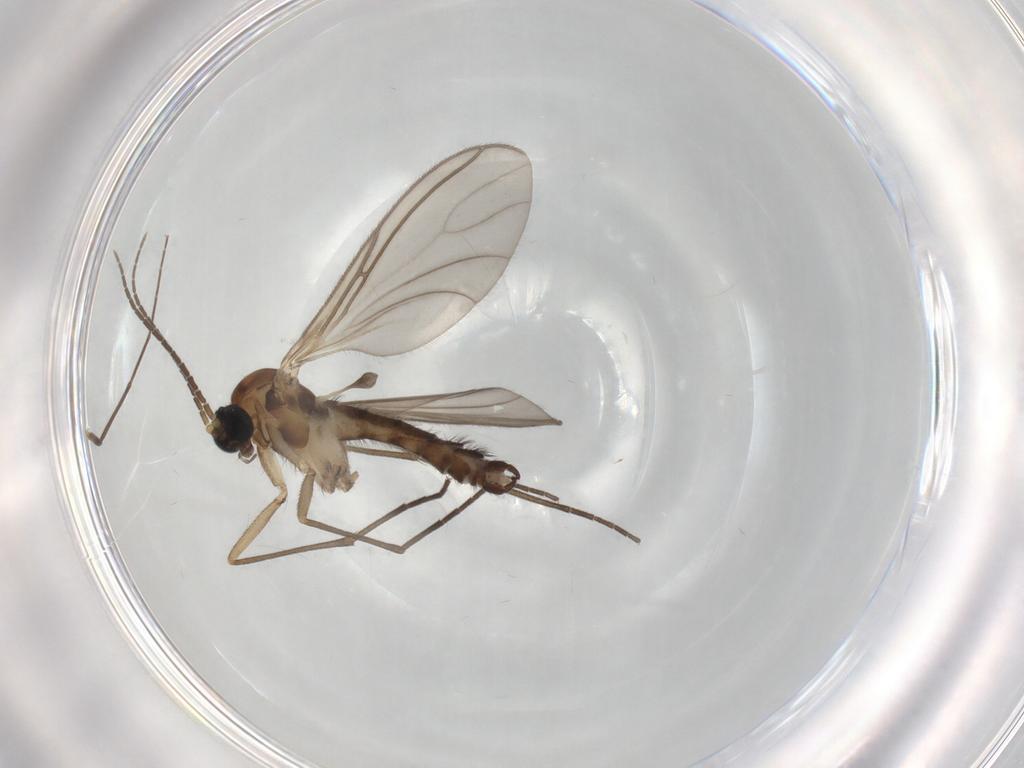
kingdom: Animalia
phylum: Arthropoda
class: Insecta
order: Diptera
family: Sciaridae
